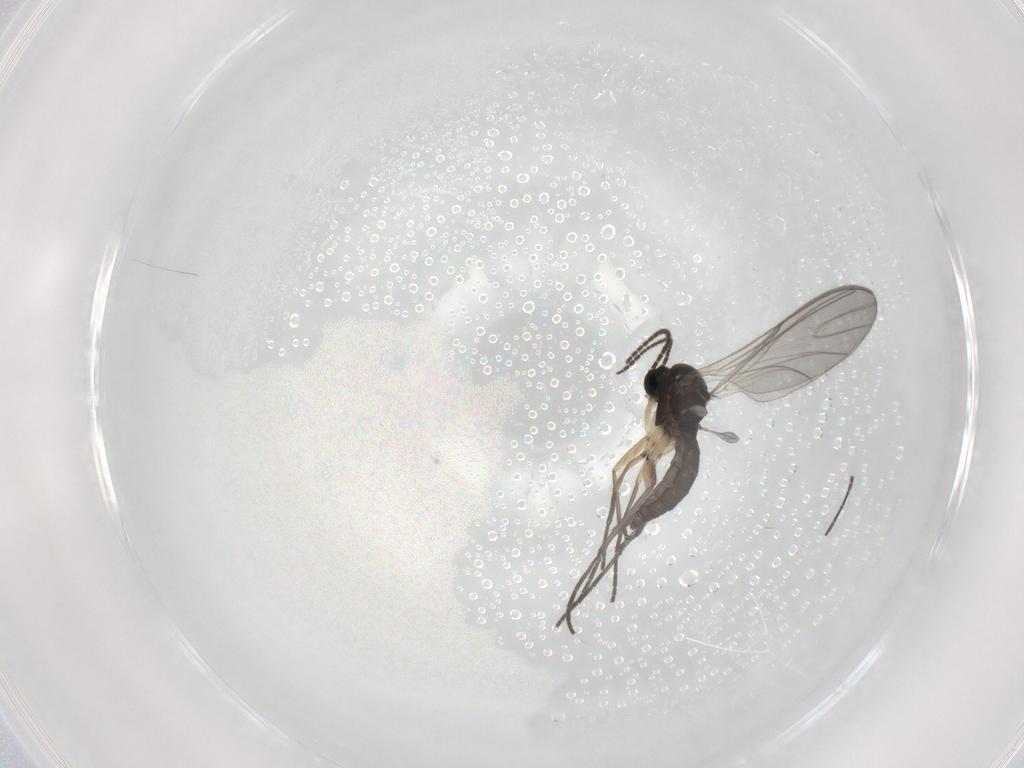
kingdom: Animalia
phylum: Arthropoda
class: Insecta
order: Diptera
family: Sciaridae
